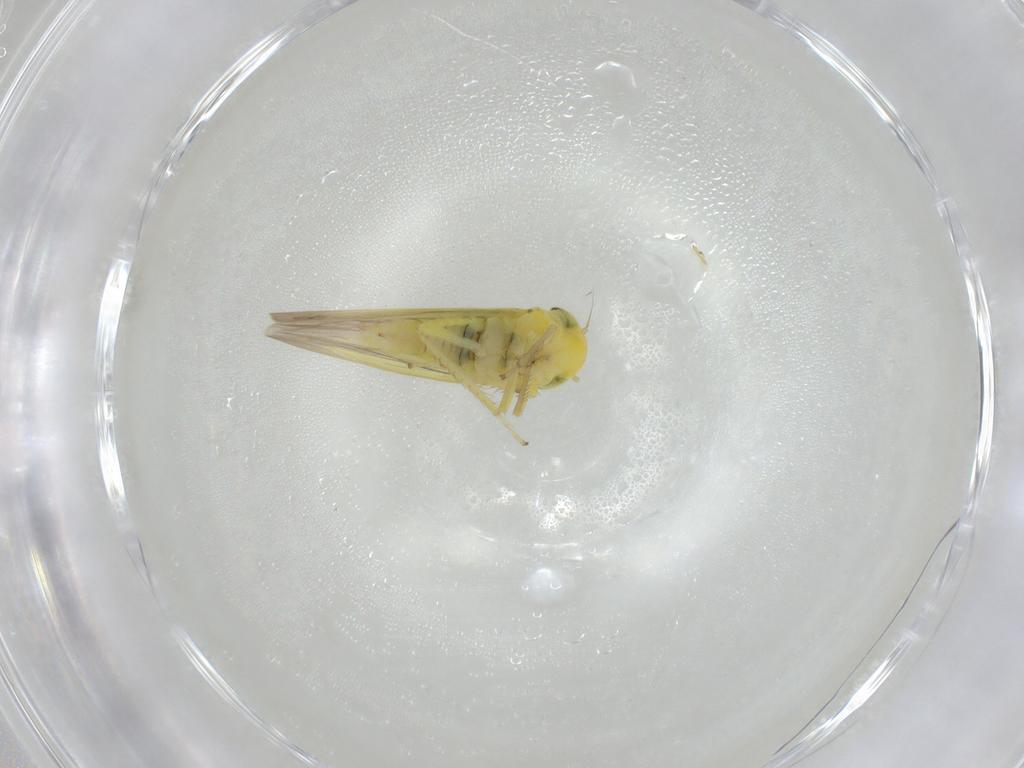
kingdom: Animalia
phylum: Arthropoda
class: Insecta
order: Hemiptera
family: Cicadellidae
